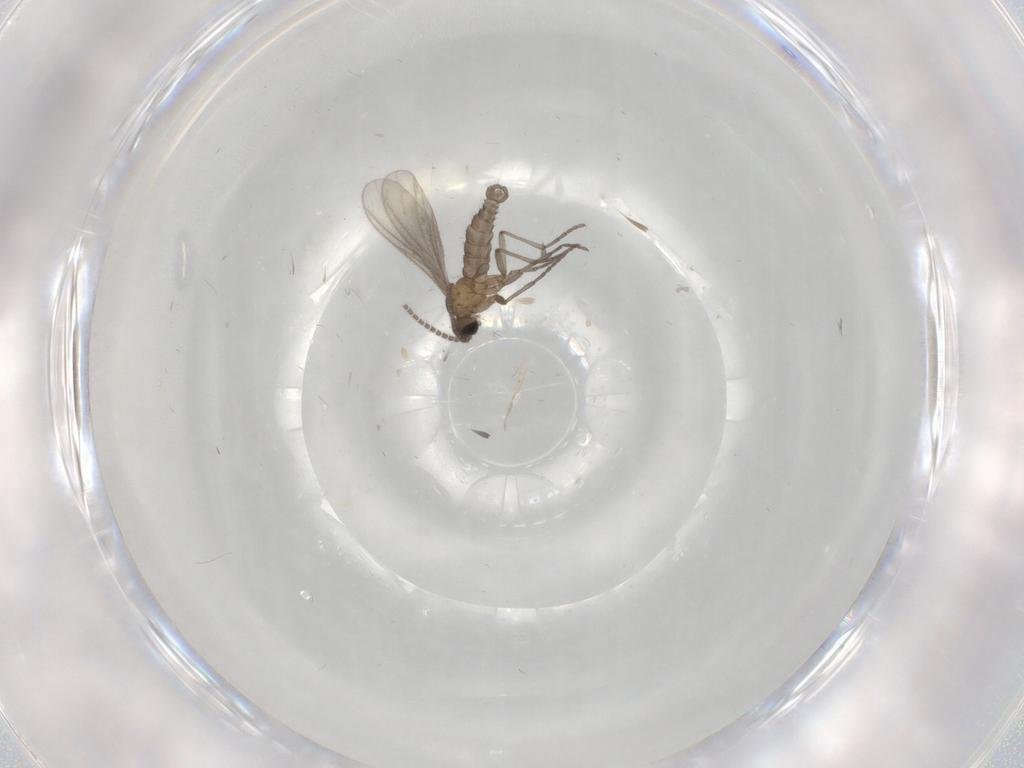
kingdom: Animalia
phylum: Arthropoda
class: Insecta
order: Diptera
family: Sciaridae
